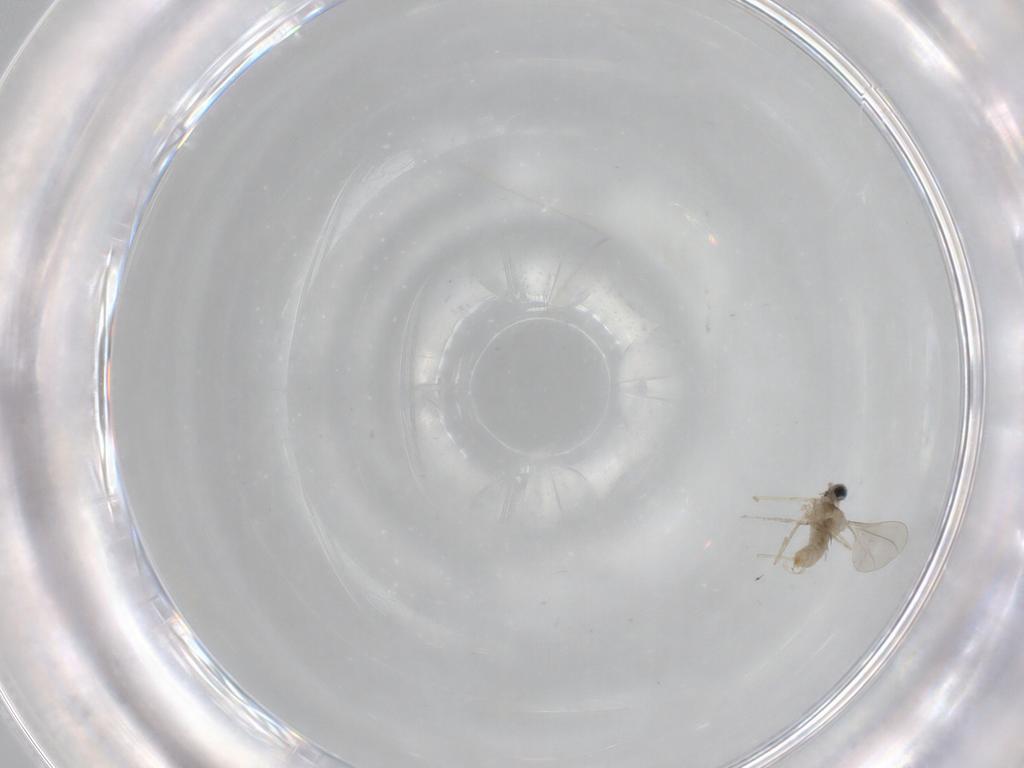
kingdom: Animalia
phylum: Arthropoda
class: Insecta
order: Diptera
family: Cecidomyiidae
